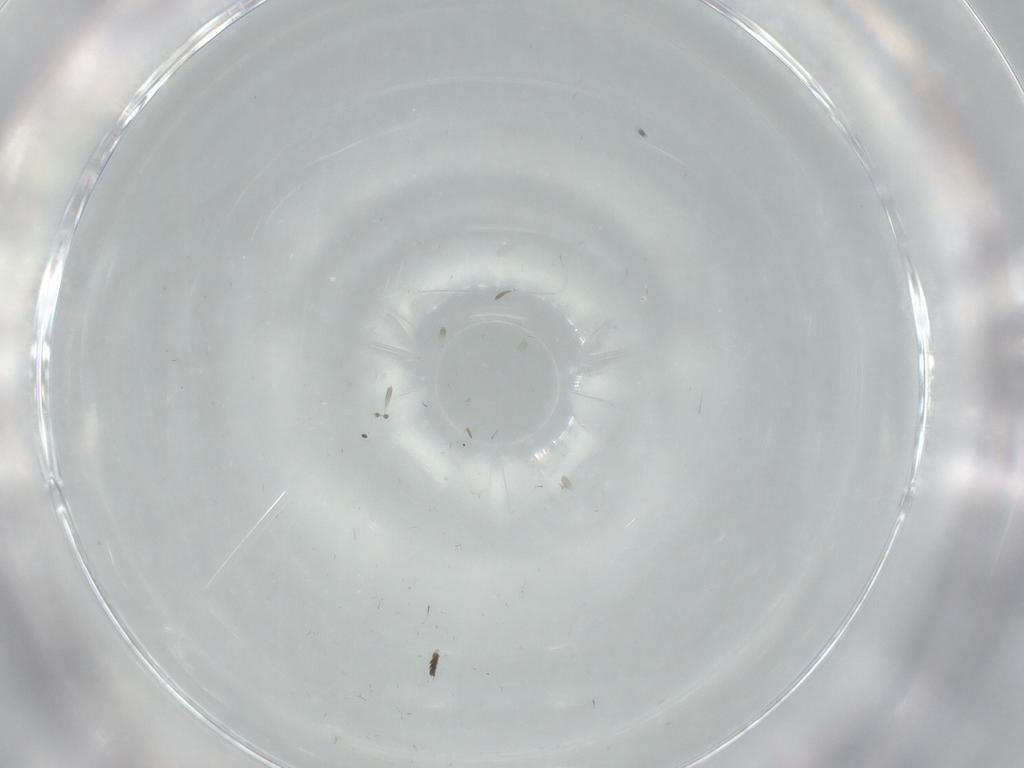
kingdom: Animalia
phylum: Arthropoda
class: Insecta
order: Diptera
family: Psychodidae
